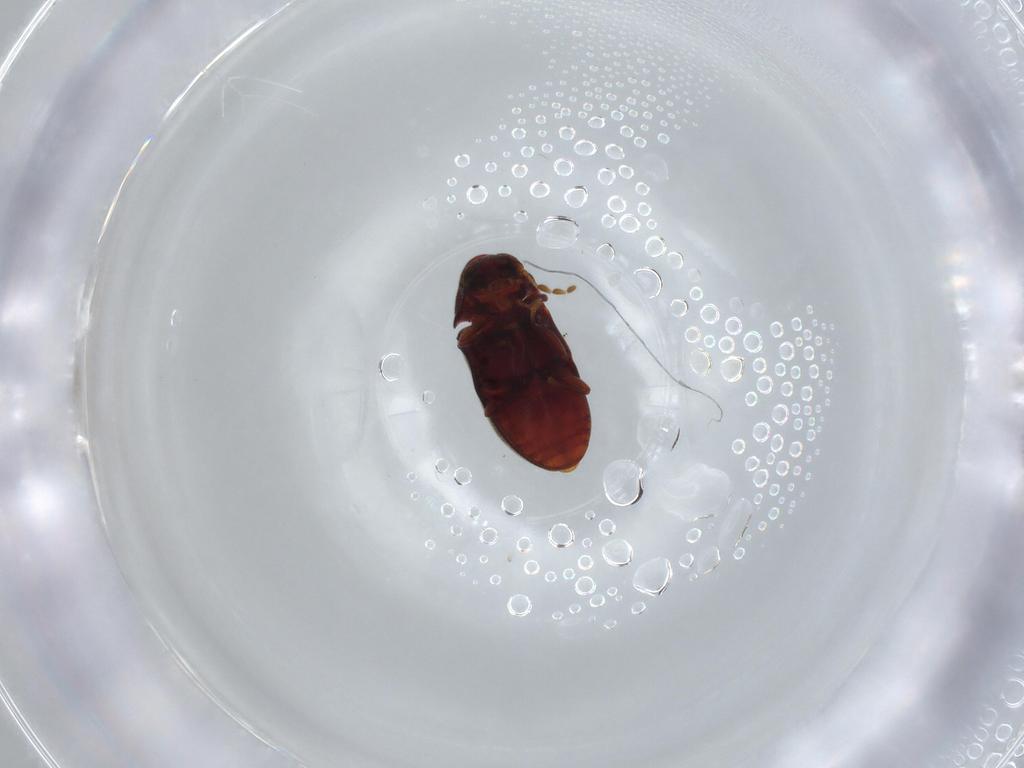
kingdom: Animalia
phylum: Arthropoda
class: Insecta
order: Coleoptera
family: Ptinidae
